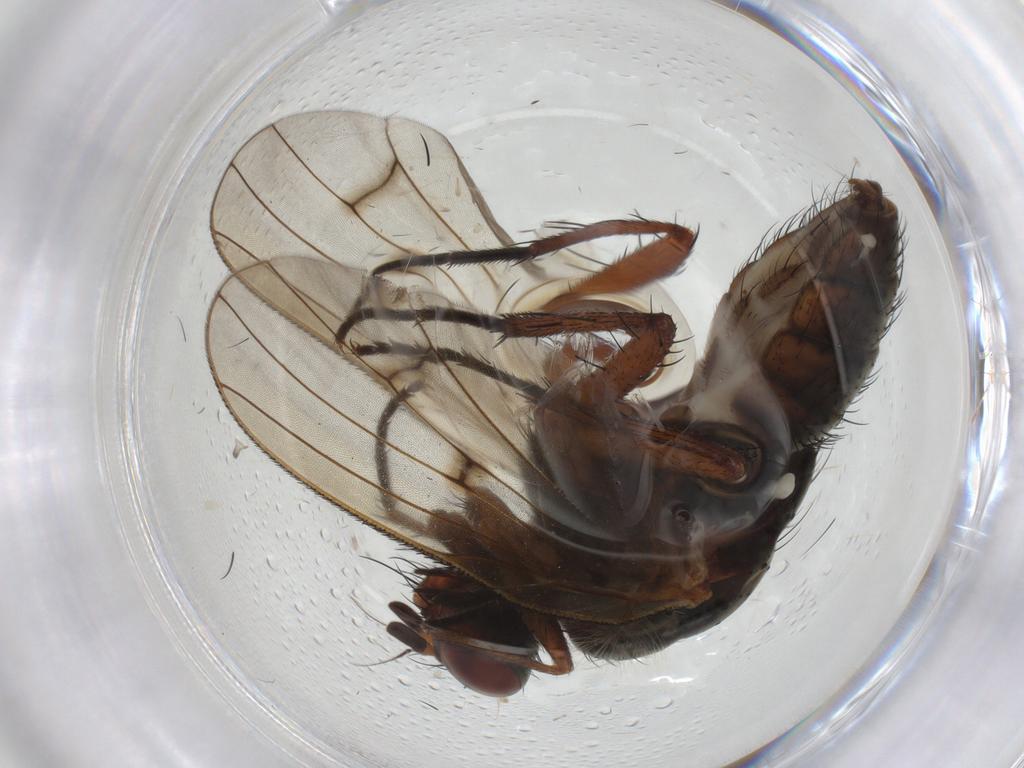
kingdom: Animalia
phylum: Arthropoda
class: Insecta
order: Diptera
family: Anthomyiidae
